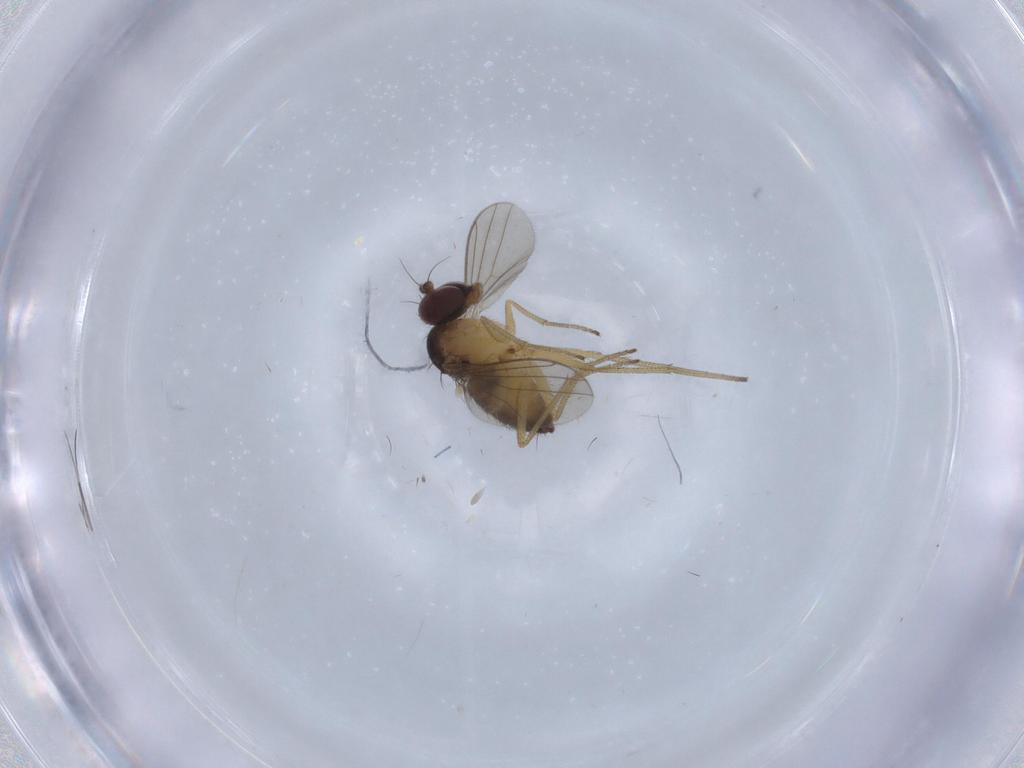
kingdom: Animalia
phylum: Arthropoda
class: Insecta
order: Diptera
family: Dolichopodidae
